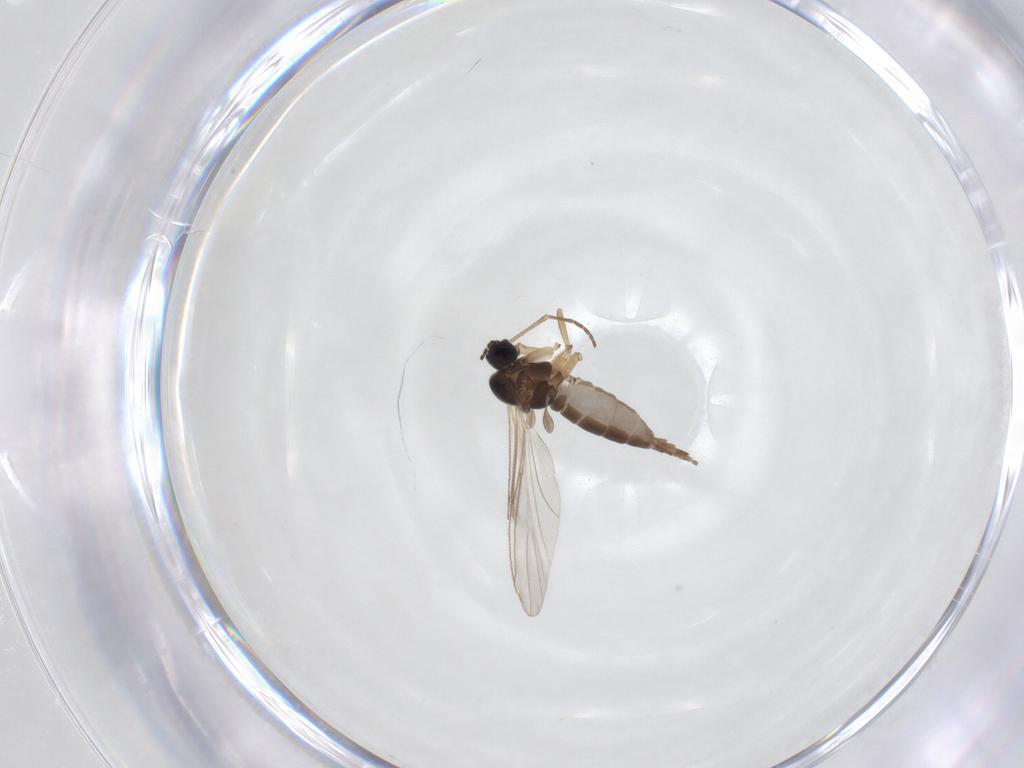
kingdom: Animalia
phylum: Arthropoda
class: Insecta
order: Diptera
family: Sciaridae
